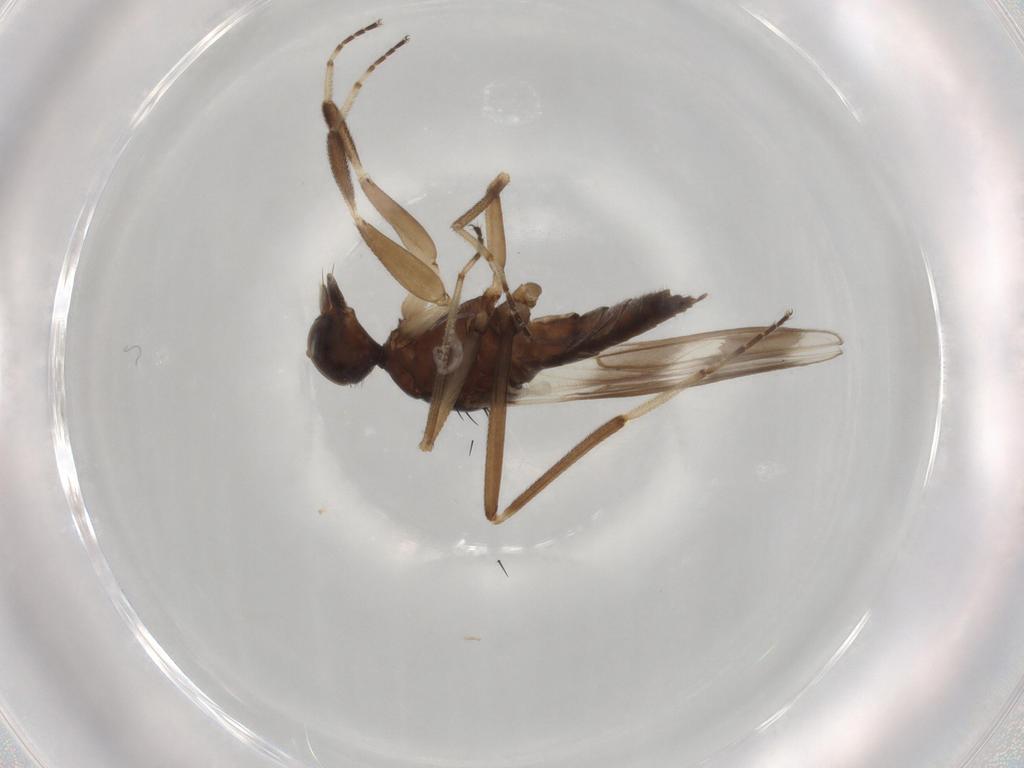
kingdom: Animalia
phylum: Arthropoda
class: Insecta
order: Diptera
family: Hybotidae
